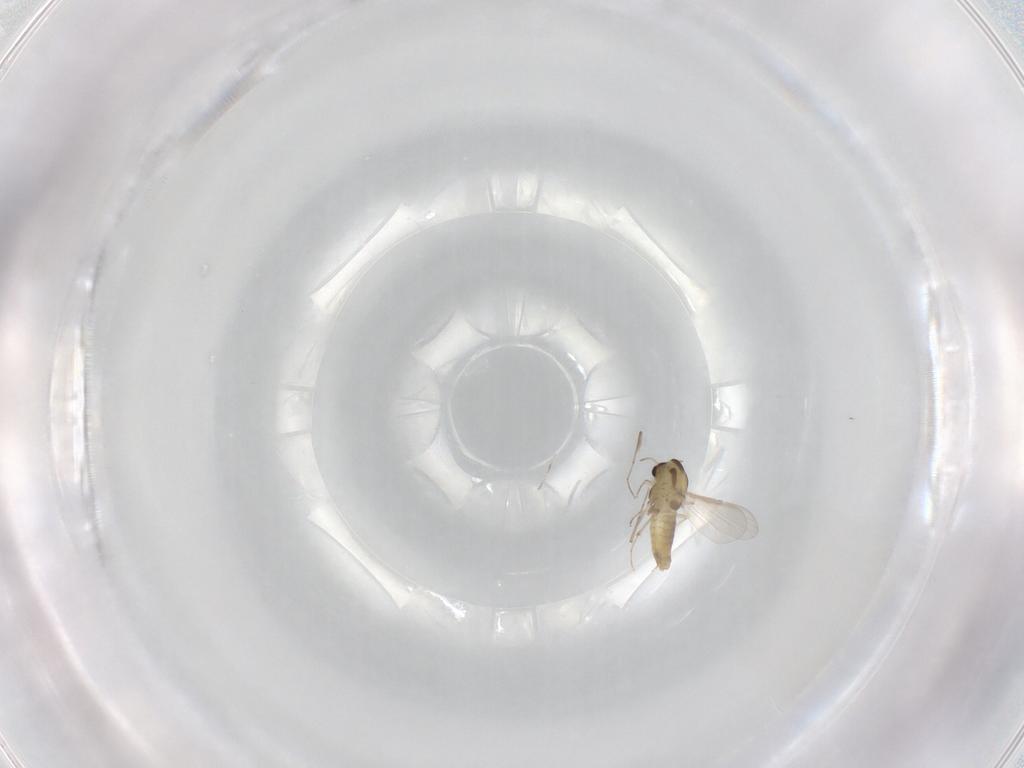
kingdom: Animalia
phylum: Arthropoda
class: Insecta
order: Diptera
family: Chironomidae
